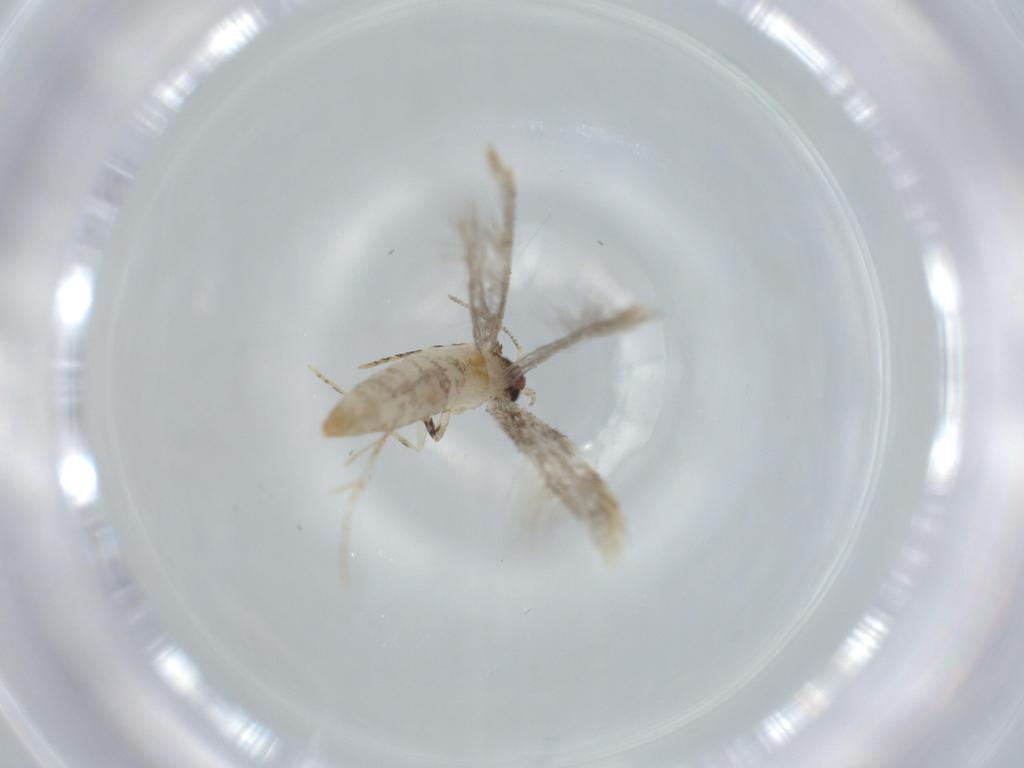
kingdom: Animalia
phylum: Arthropoda
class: Insecta
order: Lepidoptera
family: Tineidae
